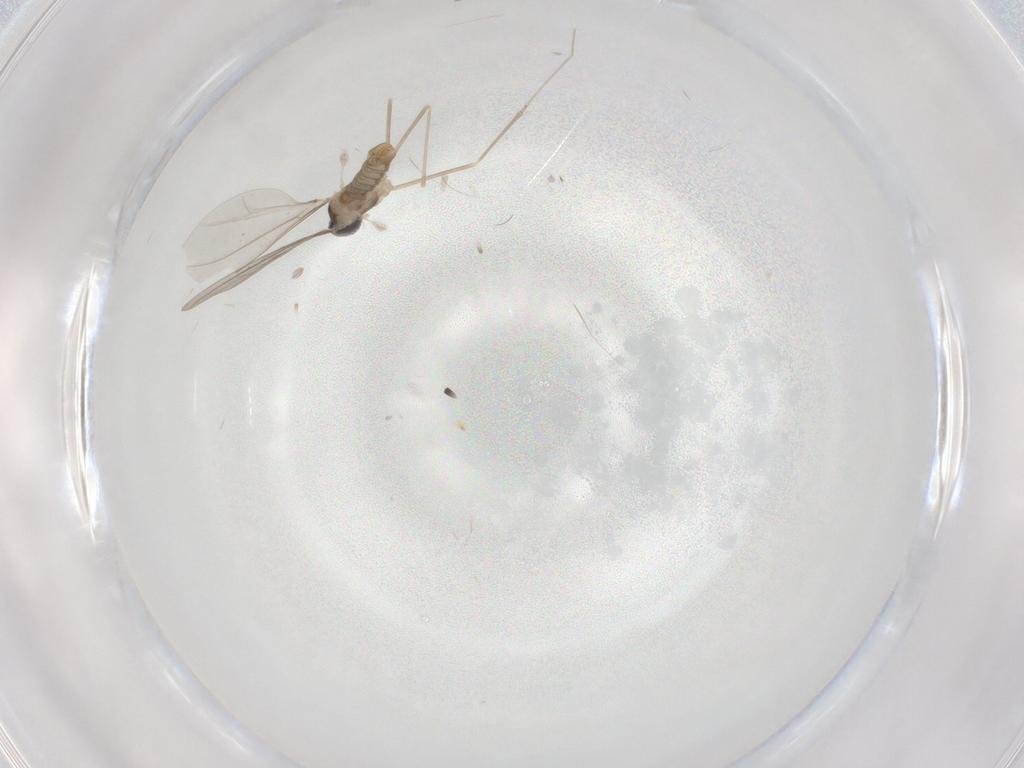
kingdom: Animalia
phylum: Arthropoda
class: Insecta
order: Diptera
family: Cecidomyiidae
